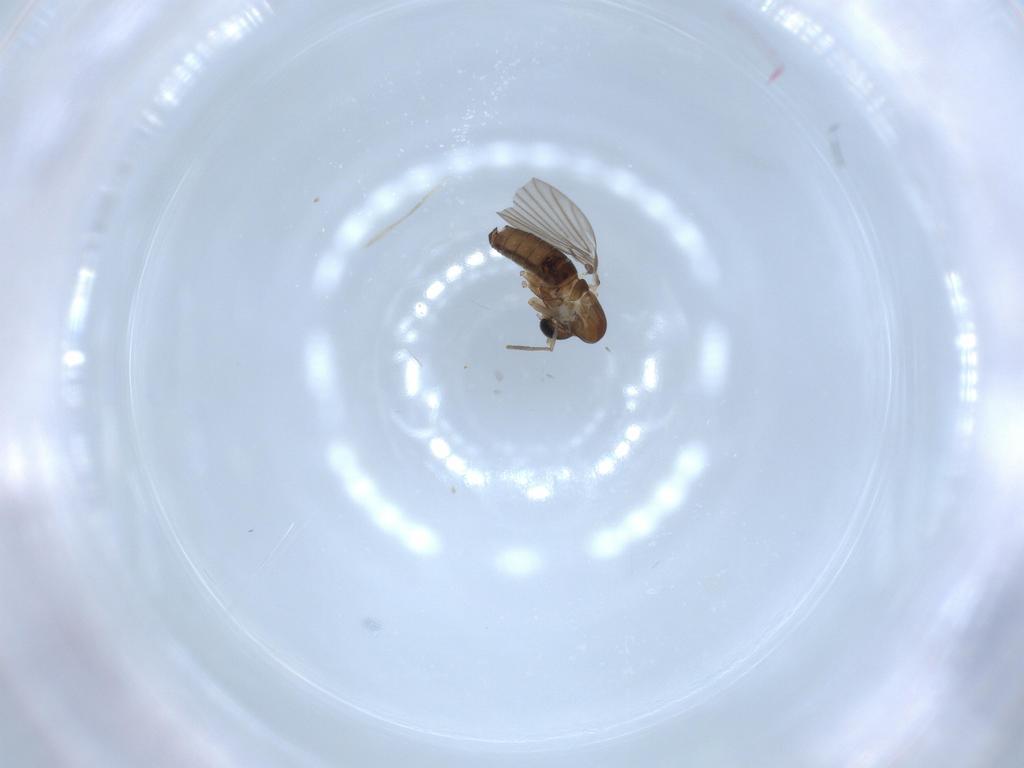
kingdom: Animalia
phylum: Arthropoda
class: Insecta
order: Diptera
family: Psychodidae
